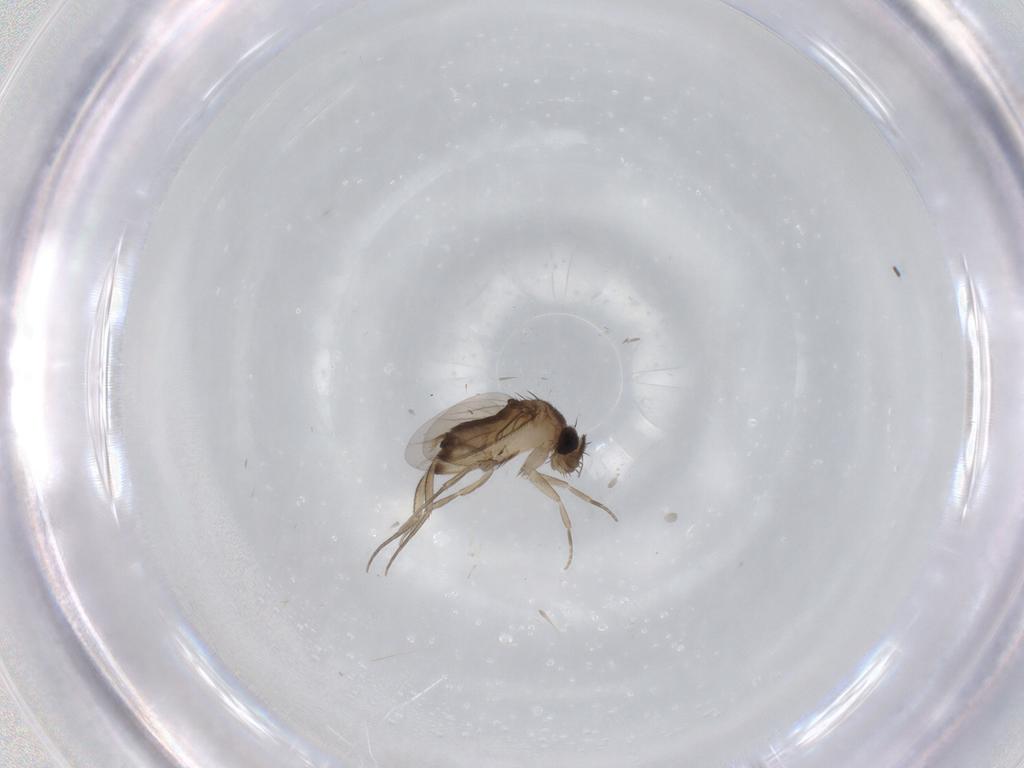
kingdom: Animalia
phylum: Arthropoda
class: Insecta
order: Diptera
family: Phoridae
